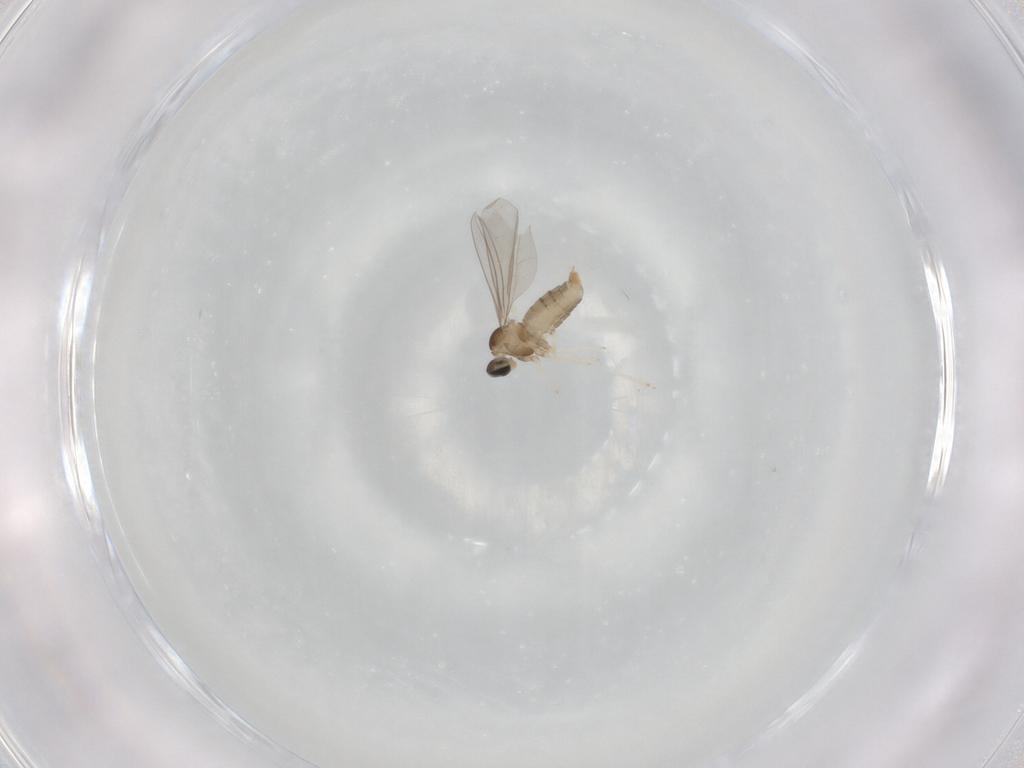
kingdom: Animalia
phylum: Arthropoda
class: Insecta
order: Diptera
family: Cecidomyiidae
